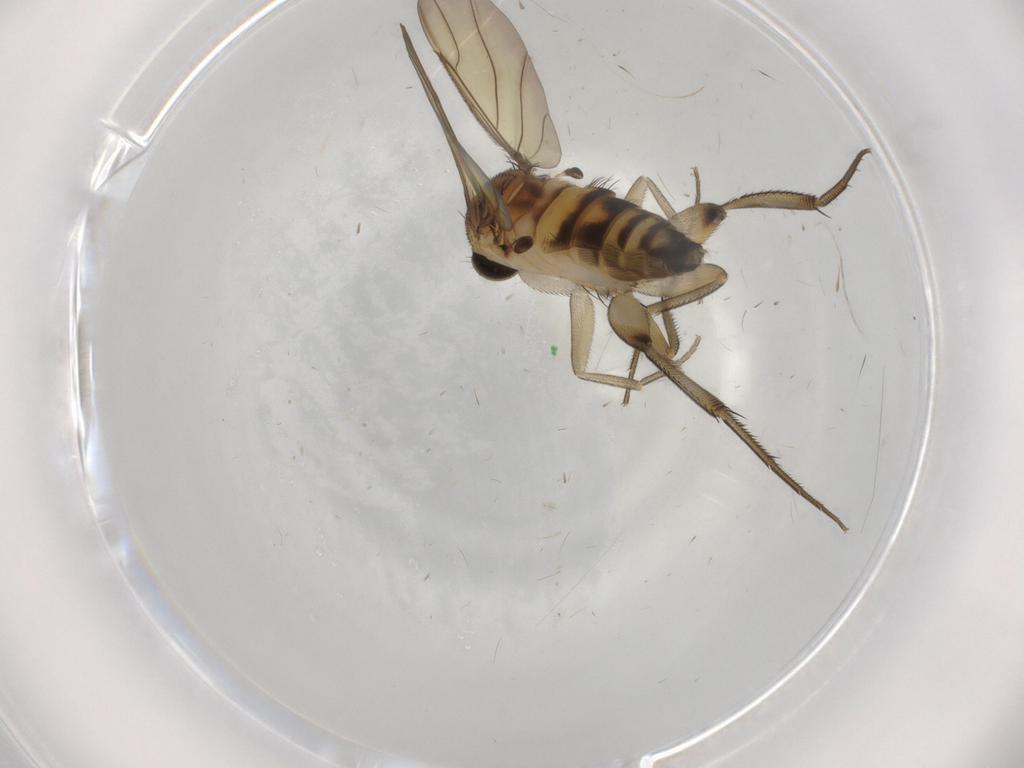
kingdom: Animalia
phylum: Arthropoda
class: Insecta
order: Diptera
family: Phoridae
